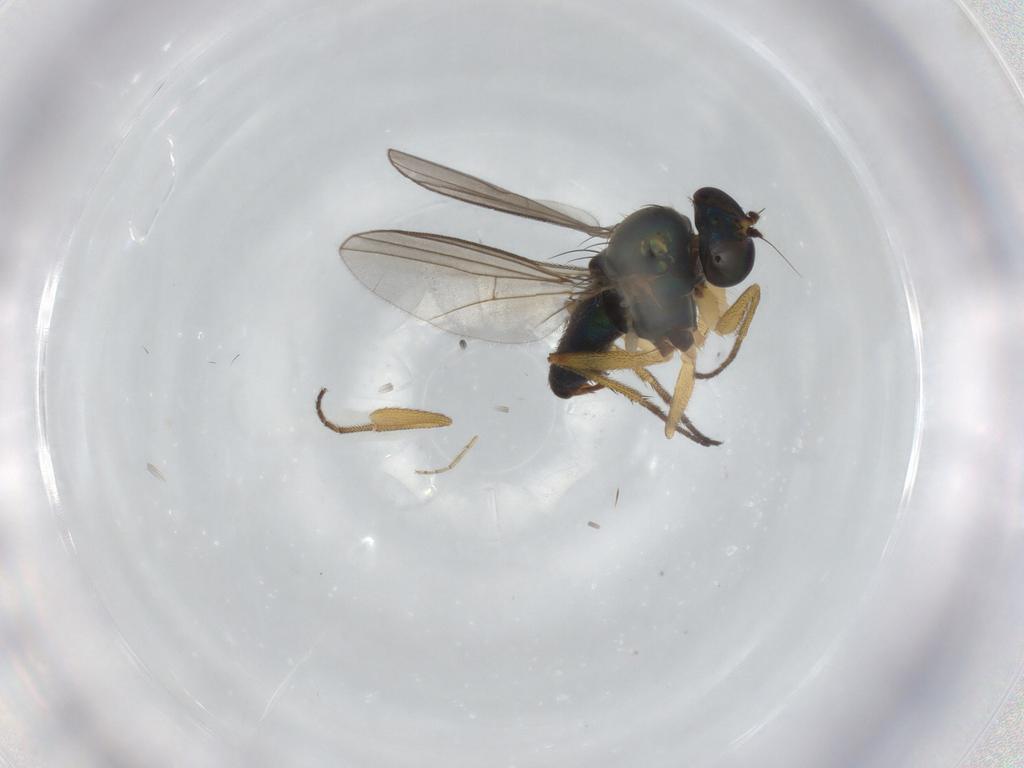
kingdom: Animalia
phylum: Arthropoda
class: Insecta
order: Diptera
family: Dolichopodidae
